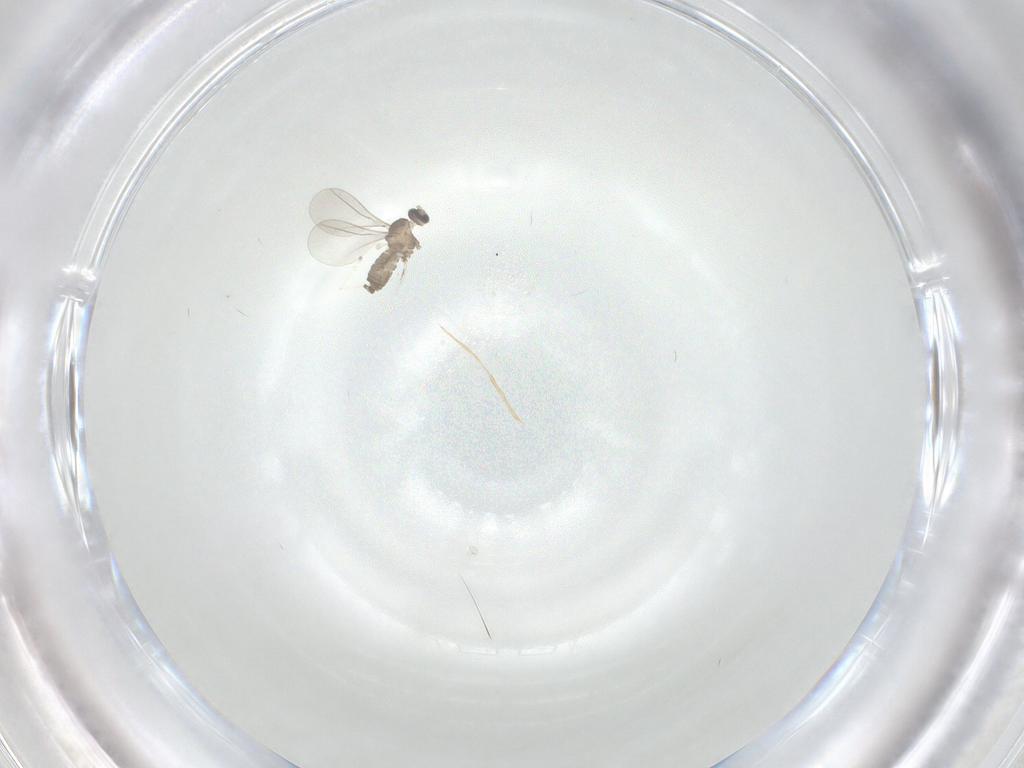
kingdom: Animalia
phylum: Arthropoda
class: Insecta
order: Diptera
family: Cecidomyiidae
